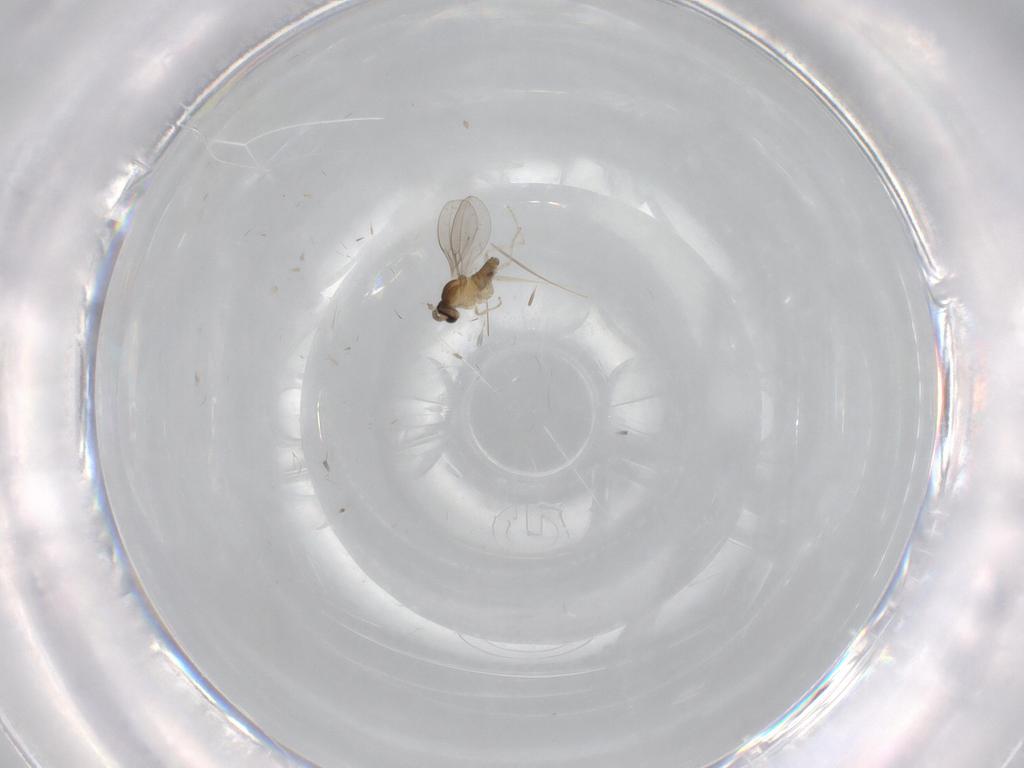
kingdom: Animalia
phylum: Arthropoda
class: Insecta
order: Diptera
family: Cecidomyiidae
